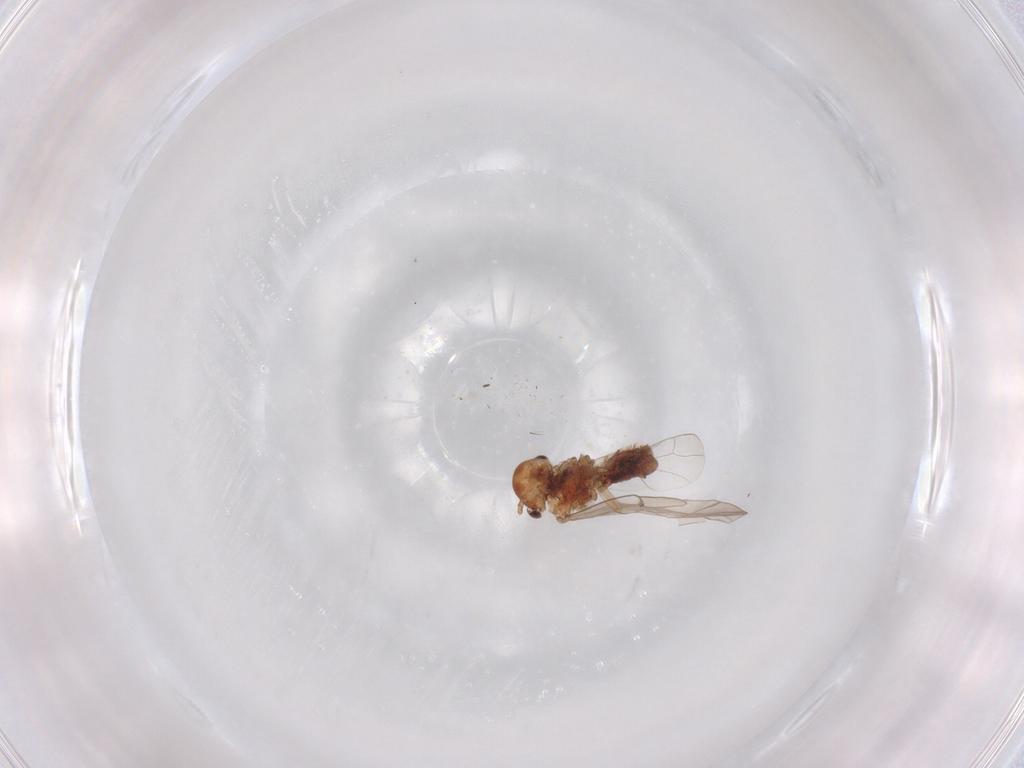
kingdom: Animalia
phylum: Arthropoda
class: Insecta
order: Psocodea
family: Ectopsocidae
